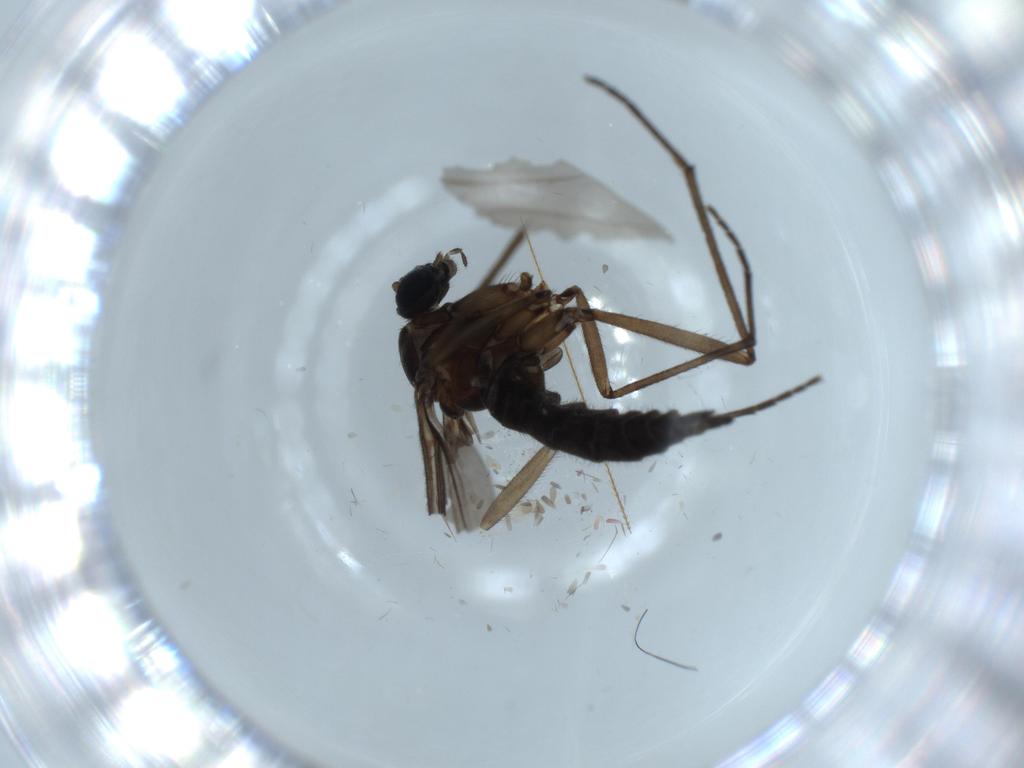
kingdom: Animalia
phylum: Arthropoda
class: Insecta
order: Diptera
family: Sciaridae
